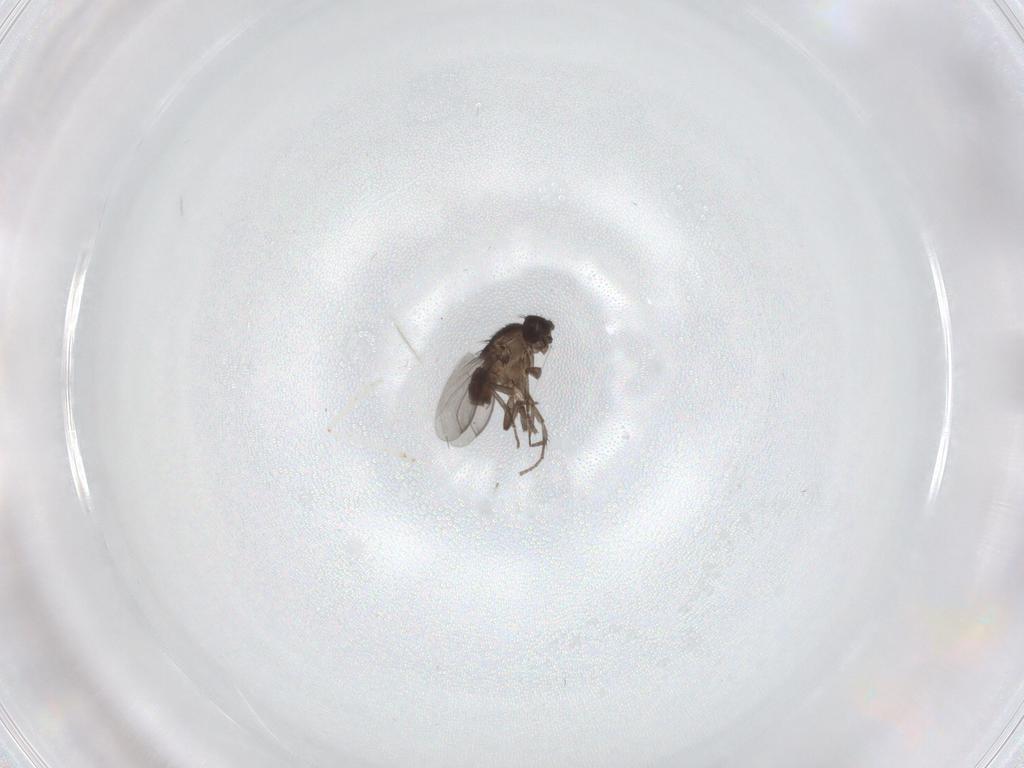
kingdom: Animalia
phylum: Arthropoda
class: Insecta
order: Diptera
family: Cecidomyiidae
